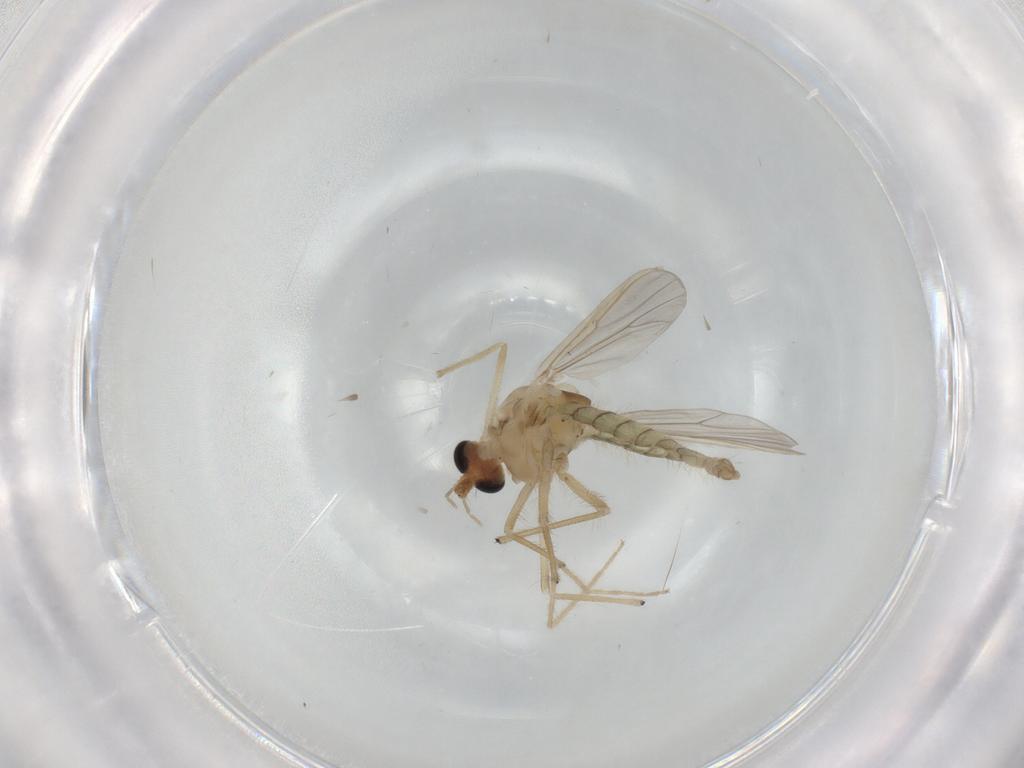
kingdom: Animalia
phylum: Arthropoda
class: Insecta
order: Diptera
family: Chironomidae
